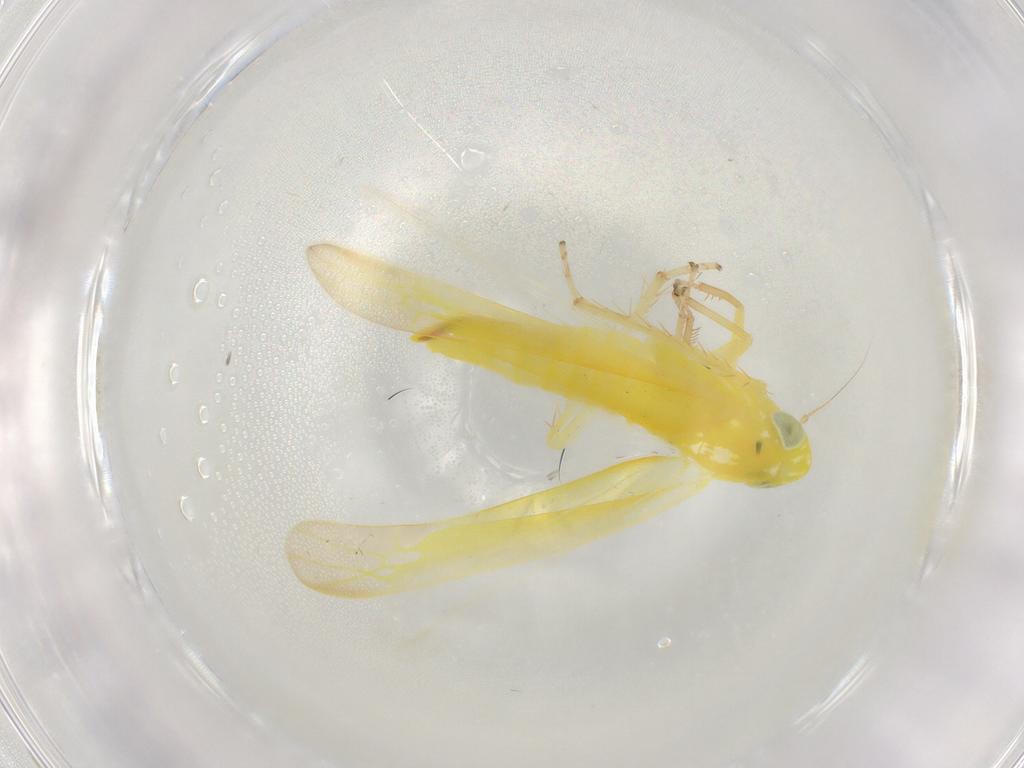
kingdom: Animalia
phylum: Arthropoda
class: Insecta
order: Hemiptera
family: Cicadellidae
